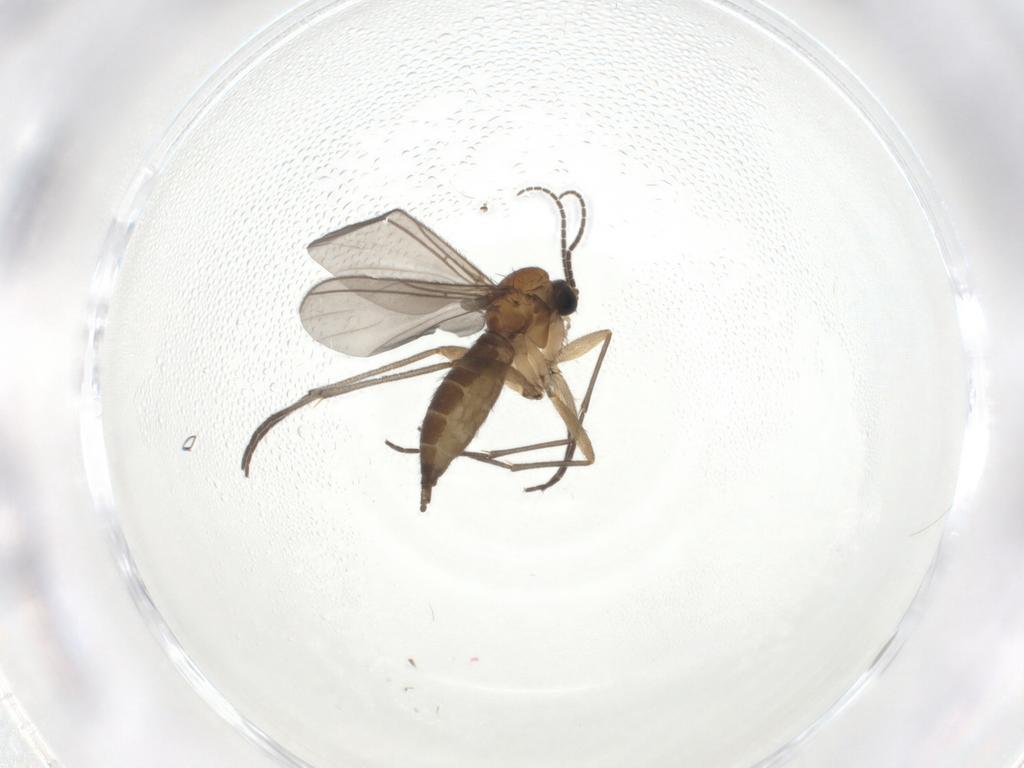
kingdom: Animalia
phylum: Arthropoda
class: Insecta
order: Diptera
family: Sciaridae
